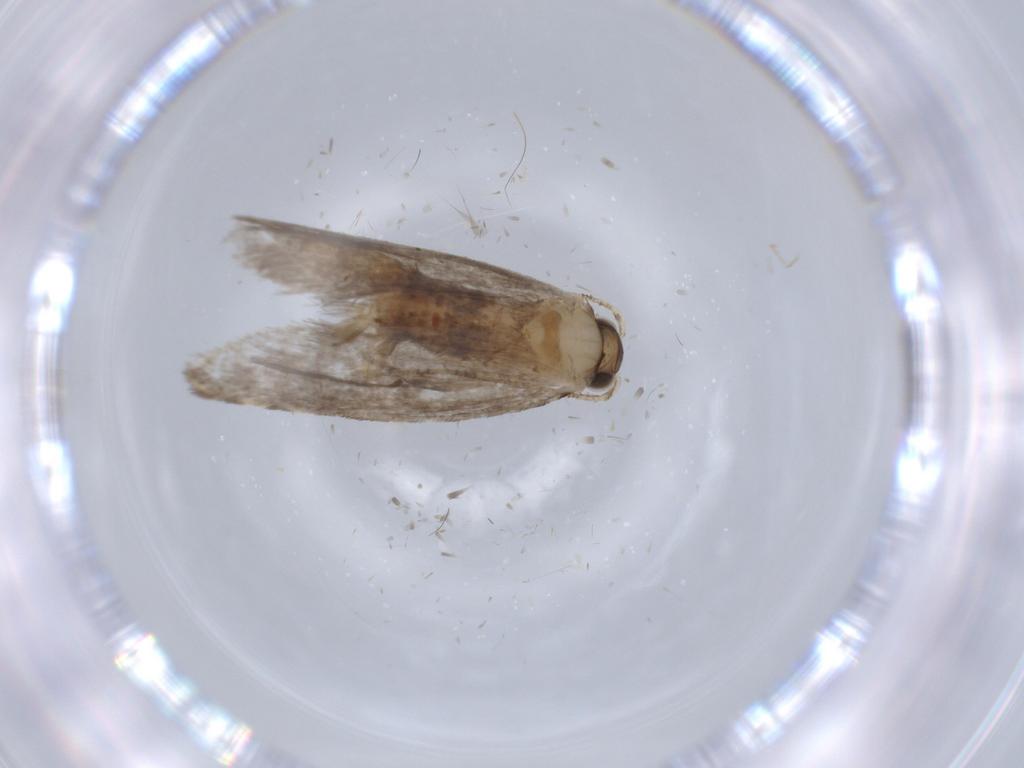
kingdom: Animalia
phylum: Arthropoda
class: Insecta
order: Lepidoptera
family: Tineidae
